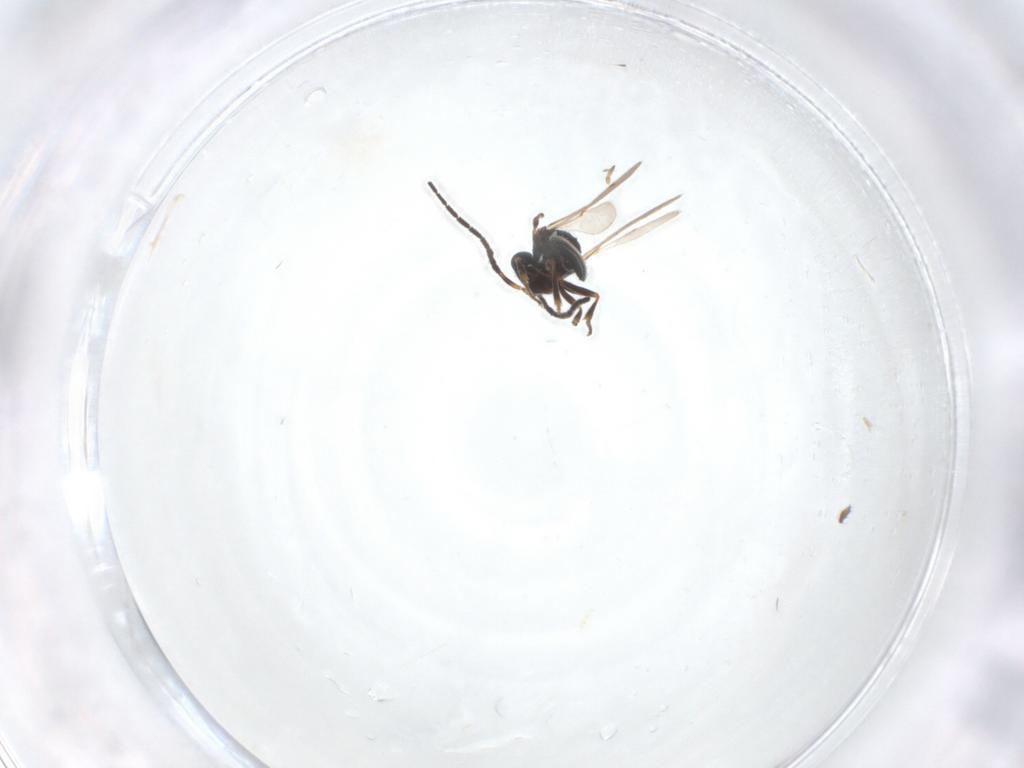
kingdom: Animalia
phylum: Arthropoda
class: Insecta
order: Hymenoptera
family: Scelionidae
